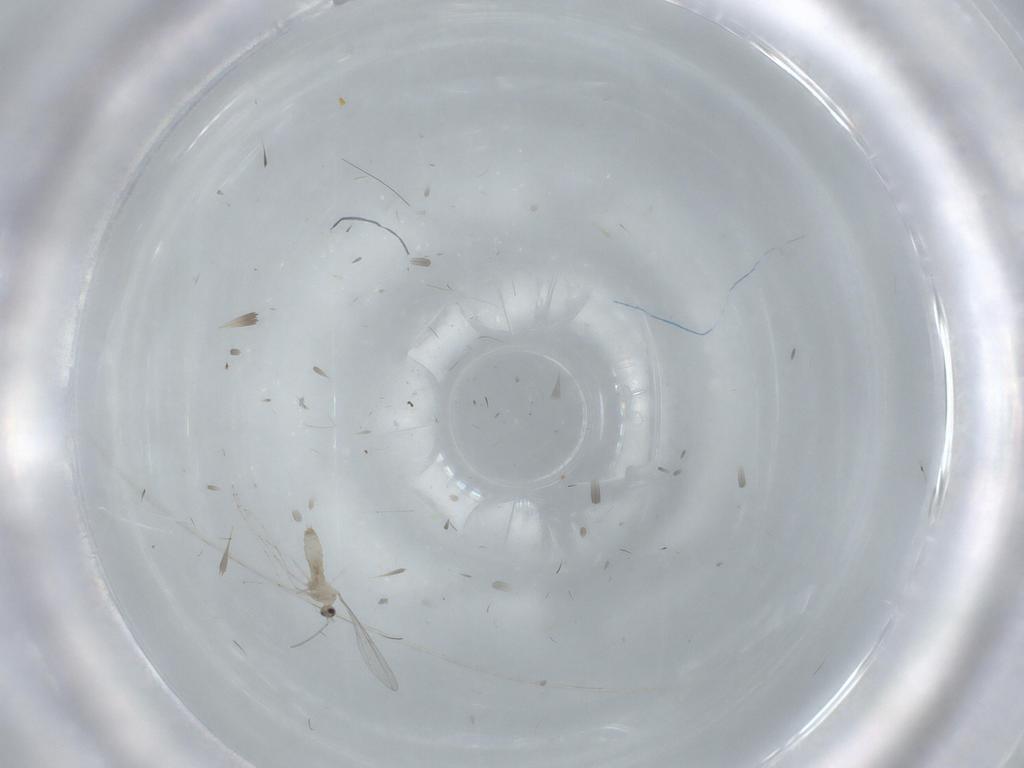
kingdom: Animalia
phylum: Arthropoda
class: Insecta
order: Diptera
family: Cecidomyiidae
